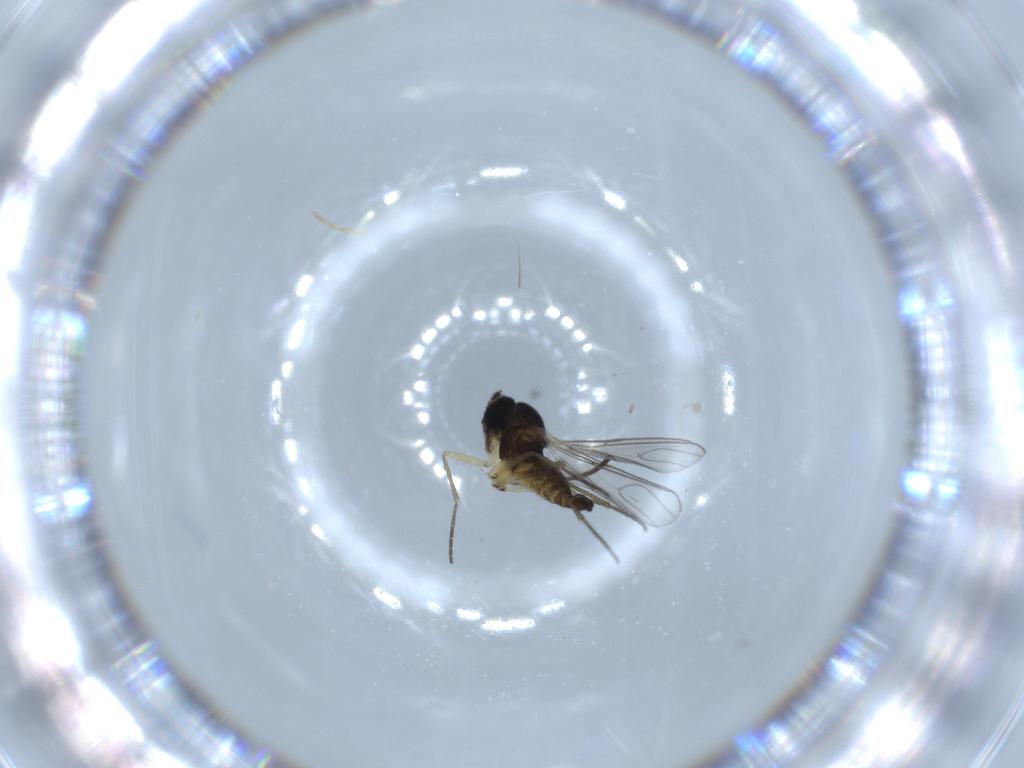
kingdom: Animalia
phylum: Arthropoda
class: Insecta
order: Diptera
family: Sciaridae
